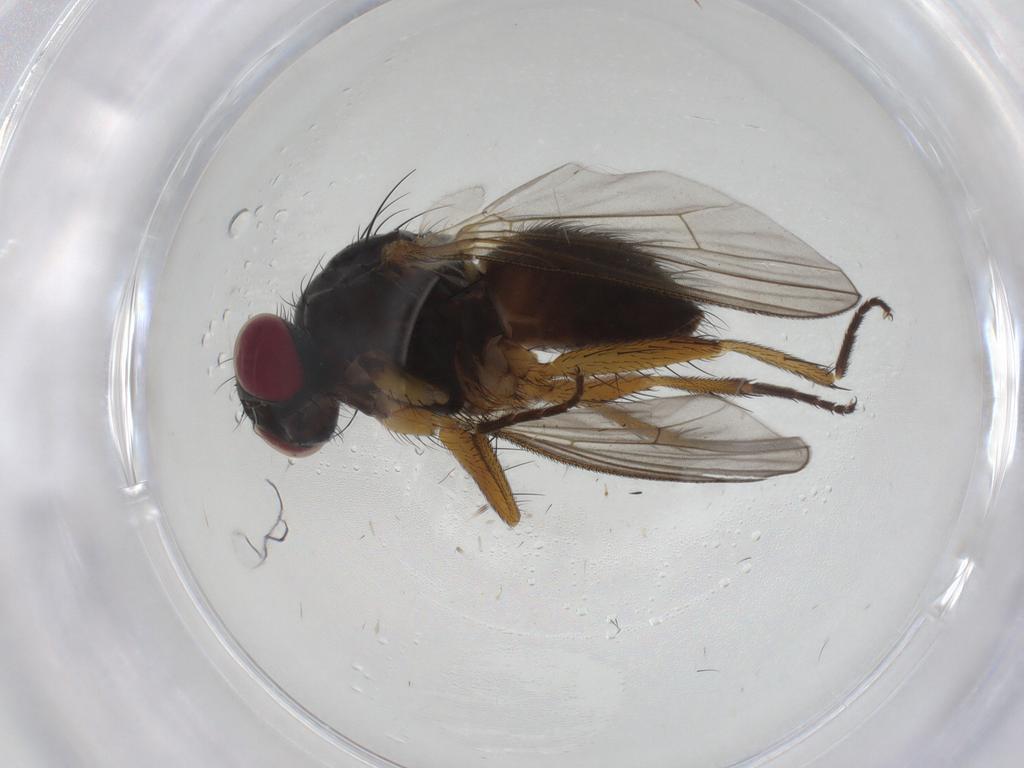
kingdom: Animalia
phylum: Arthropoda
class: Insecta
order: Diptera
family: Muscidae
